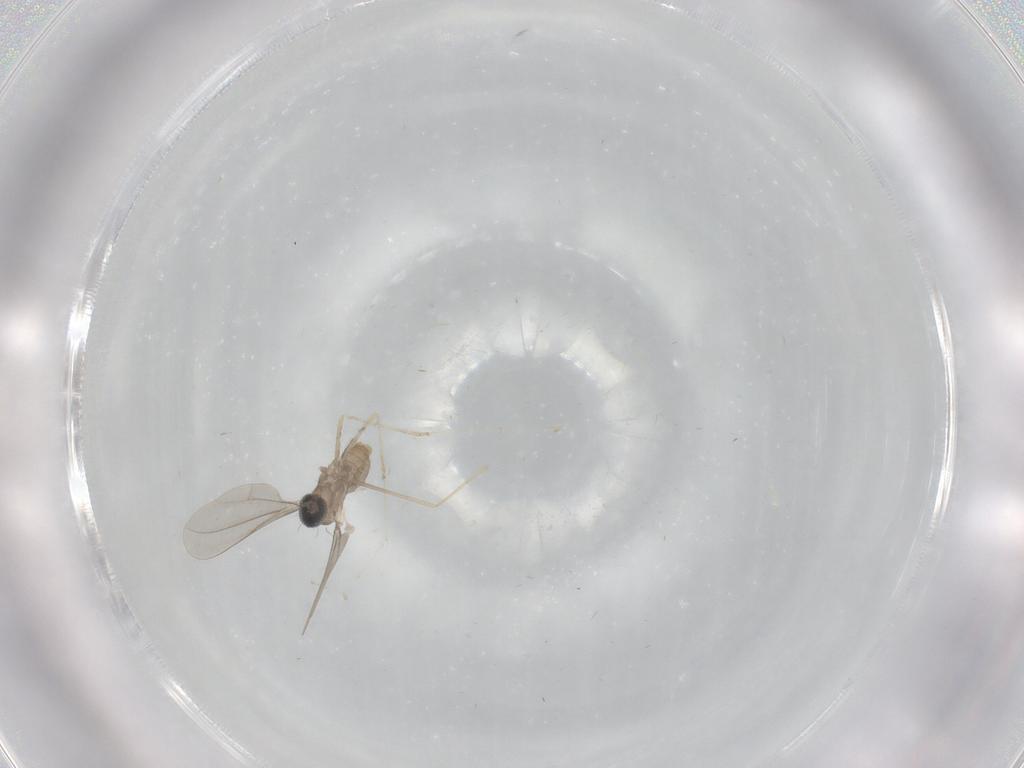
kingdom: Animalia
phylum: Arthropoda
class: Insecta
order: Diptera
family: Cecidomyiidae
